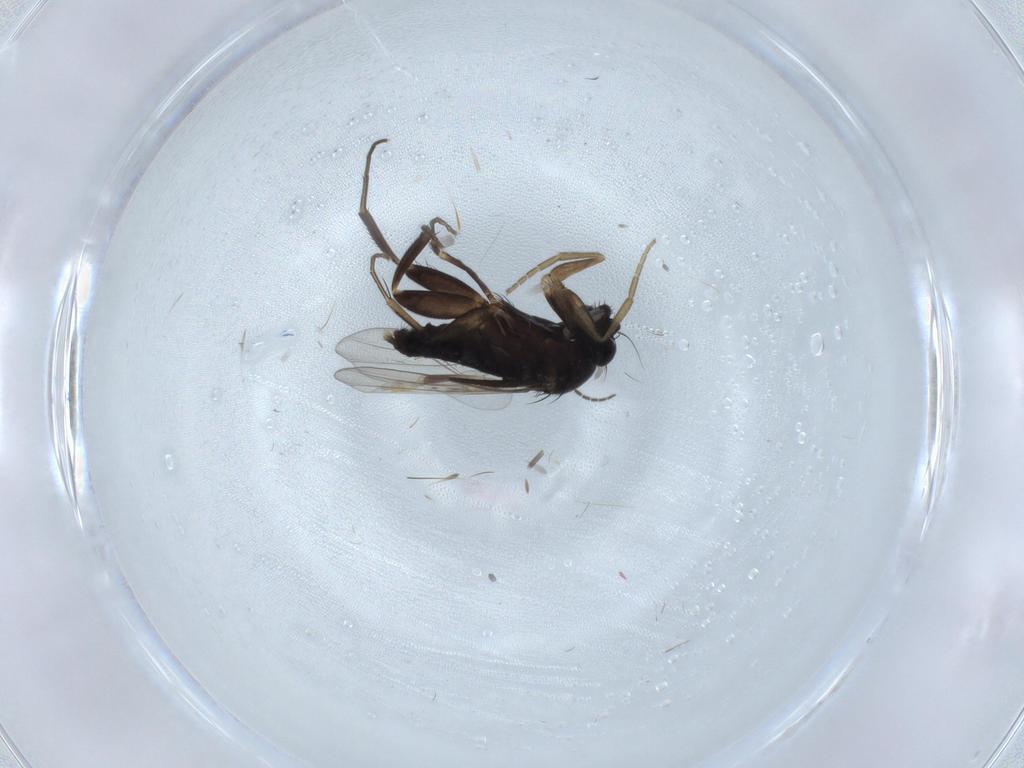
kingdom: Animalia
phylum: Arthropoda
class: Insecta
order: Diptera
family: Phoridae
